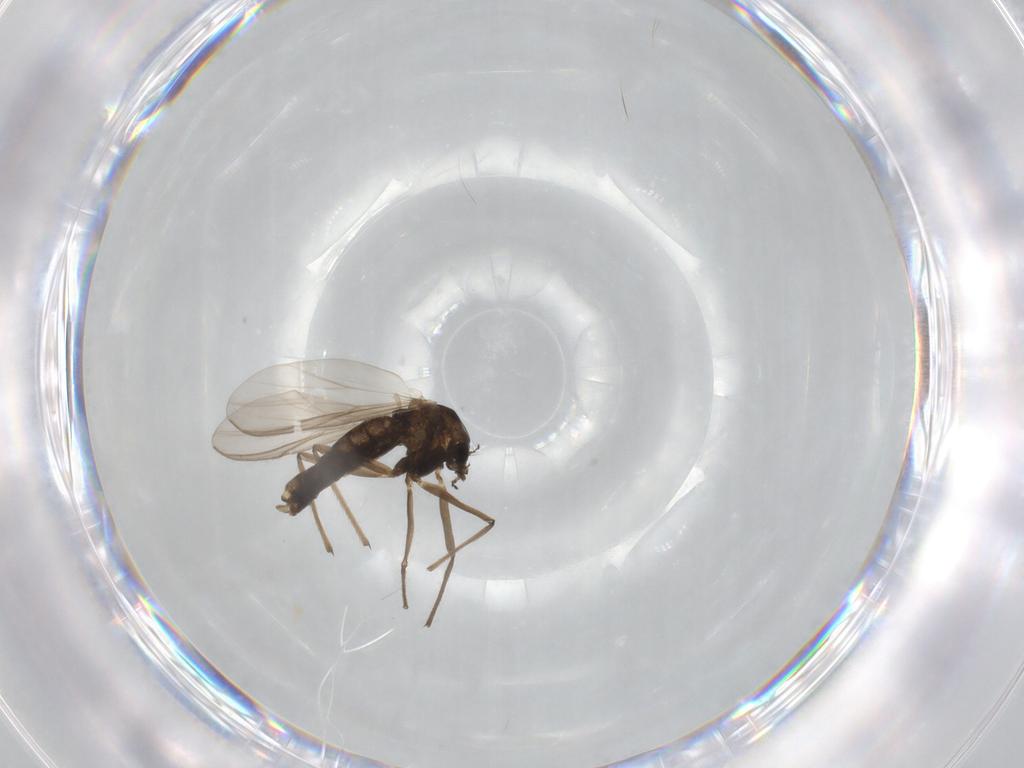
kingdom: Animalia
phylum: Arthropoda
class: Insecta
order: Diptera
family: Chironomidae
